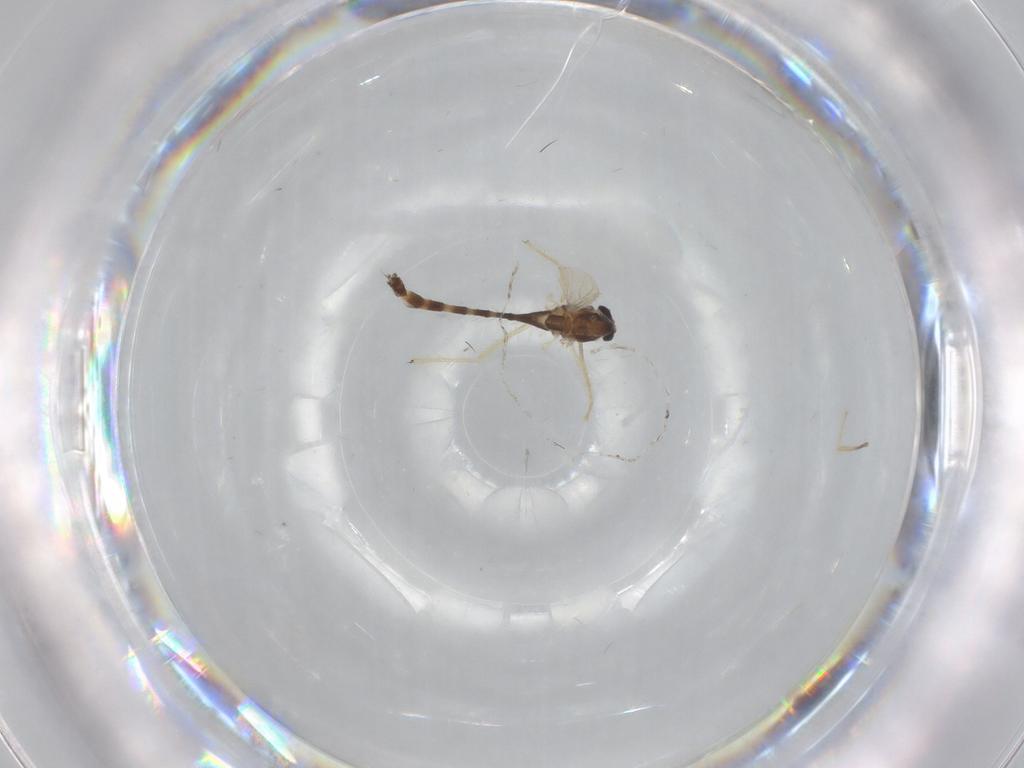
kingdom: Animalia
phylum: Arthropoda
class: Insecta
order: Diptera
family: Chironomidae
